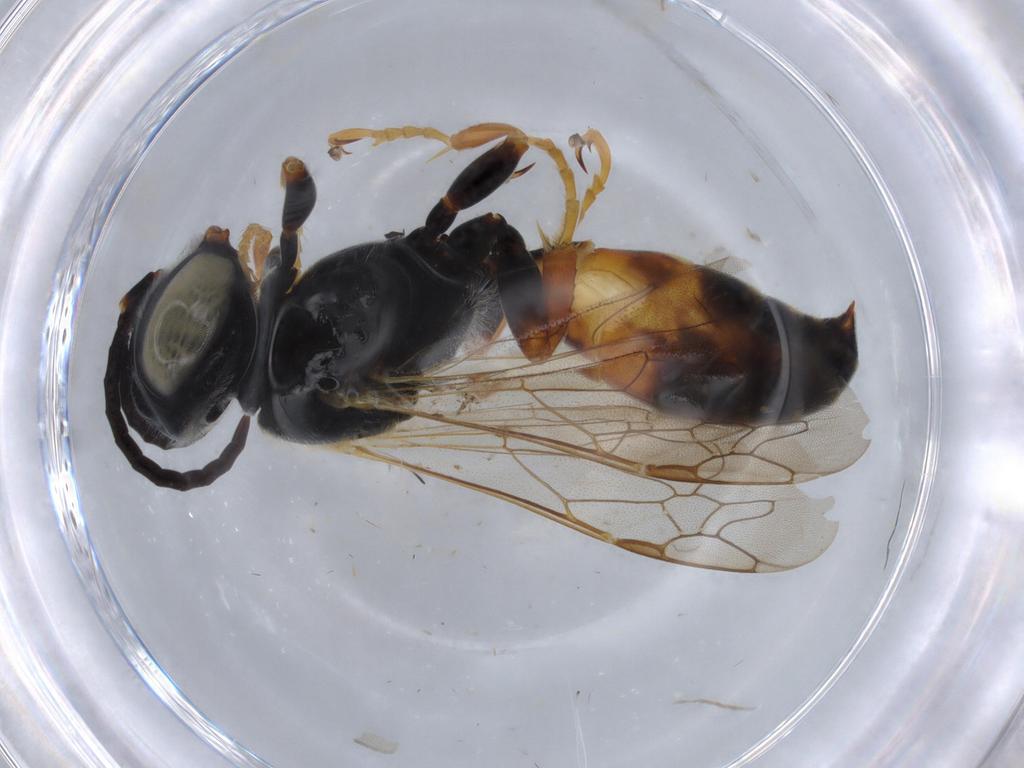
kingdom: Animalia
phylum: Arthropoda
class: Insecta
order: Hymenoptera
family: Crabronidae
